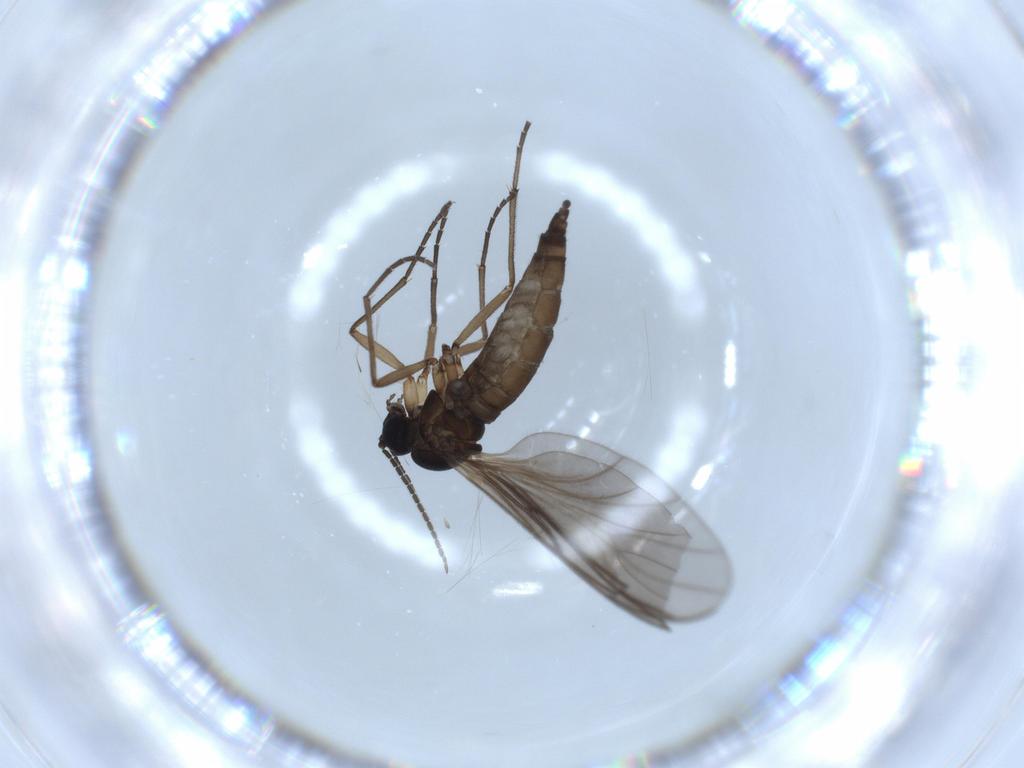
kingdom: Animalia
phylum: Arthropoda
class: Insecta
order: Diptera
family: Sciaridae
